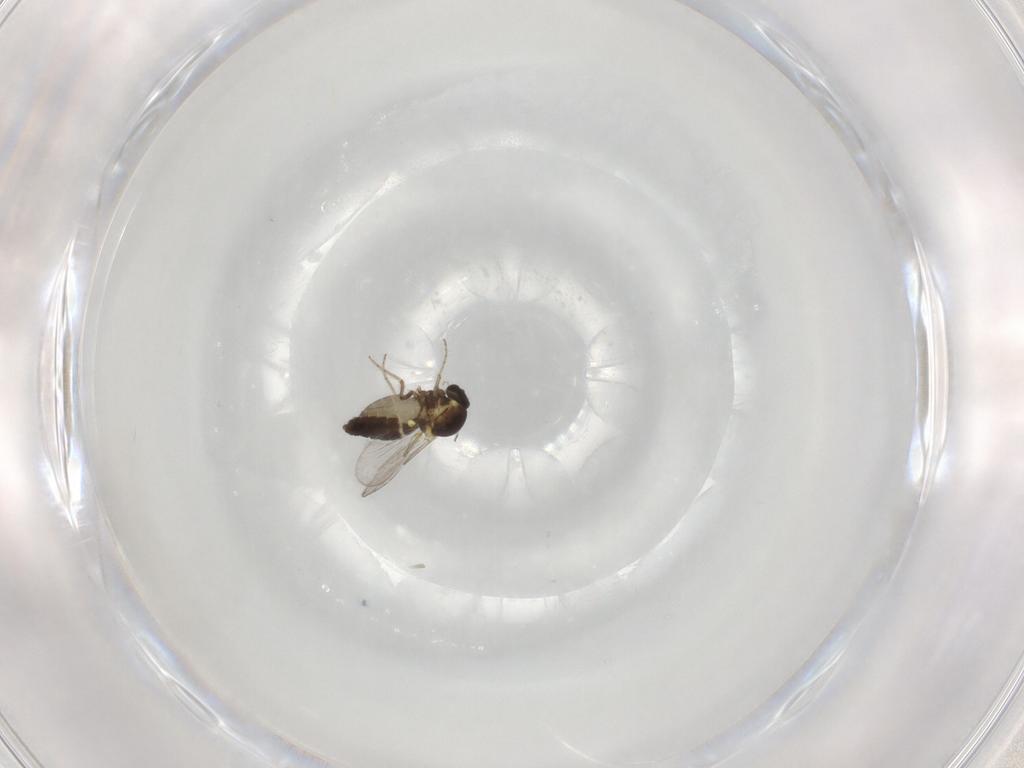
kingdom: Animalia
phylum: Arthropoda
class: Insecta
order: Diptera
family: Ceratopogonidae
